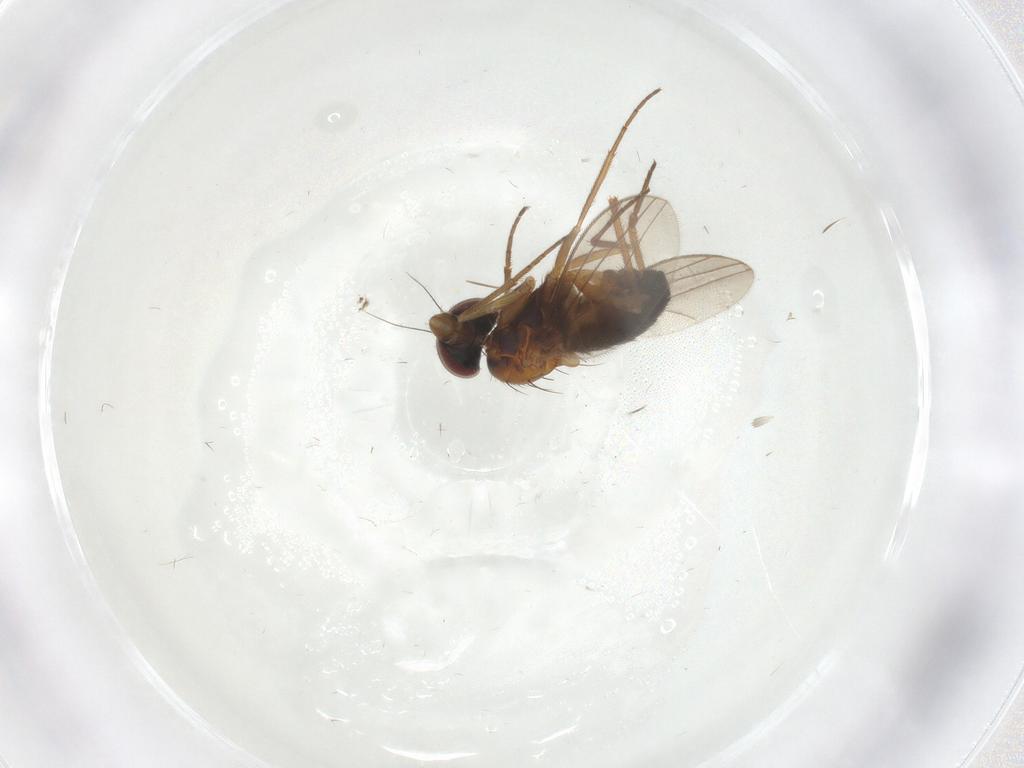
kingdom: Animalia
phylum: Arthropoda
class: Insecta
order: Diptera
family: Dolichopodidae
